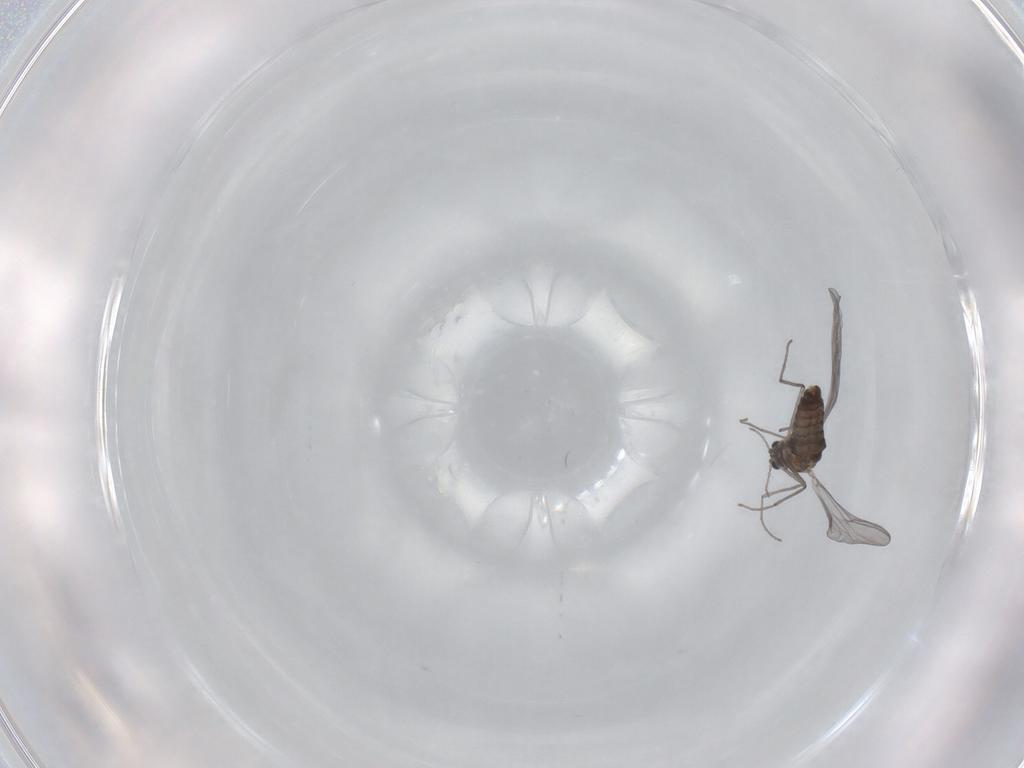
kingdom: Animalia
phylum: Arthropoda
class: Insecta
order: Diptera
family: Chironomidae
